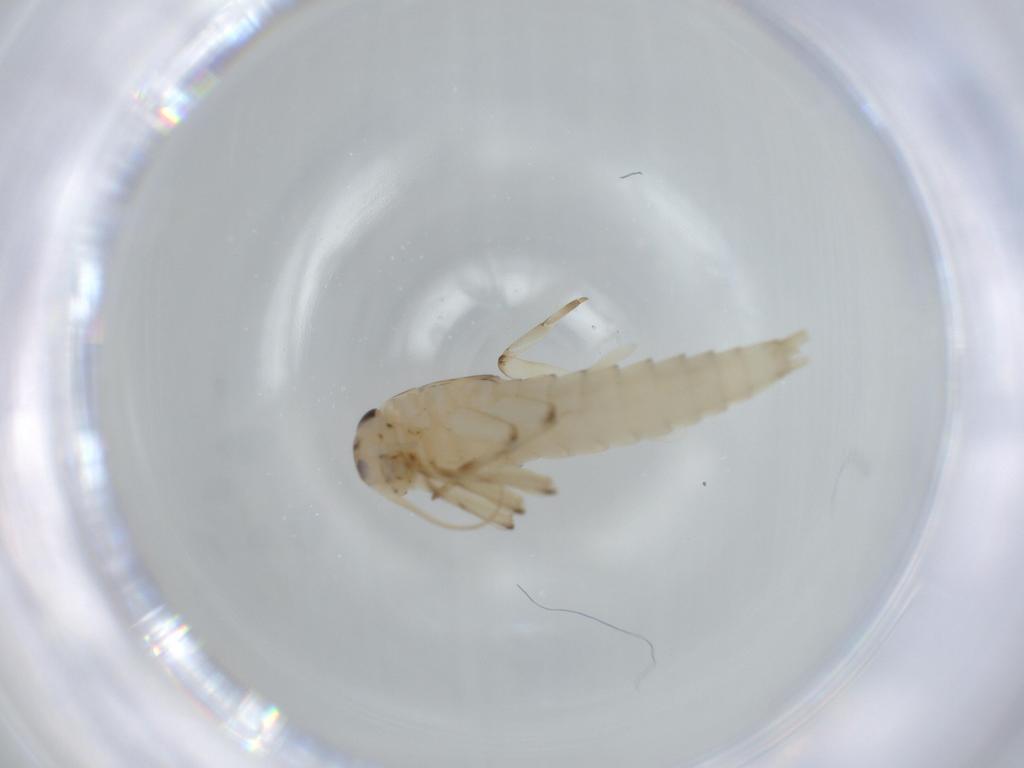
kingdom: Animalia
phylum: Arthropoda
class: Insecta
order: Ephemeroptera
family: Baetidae
